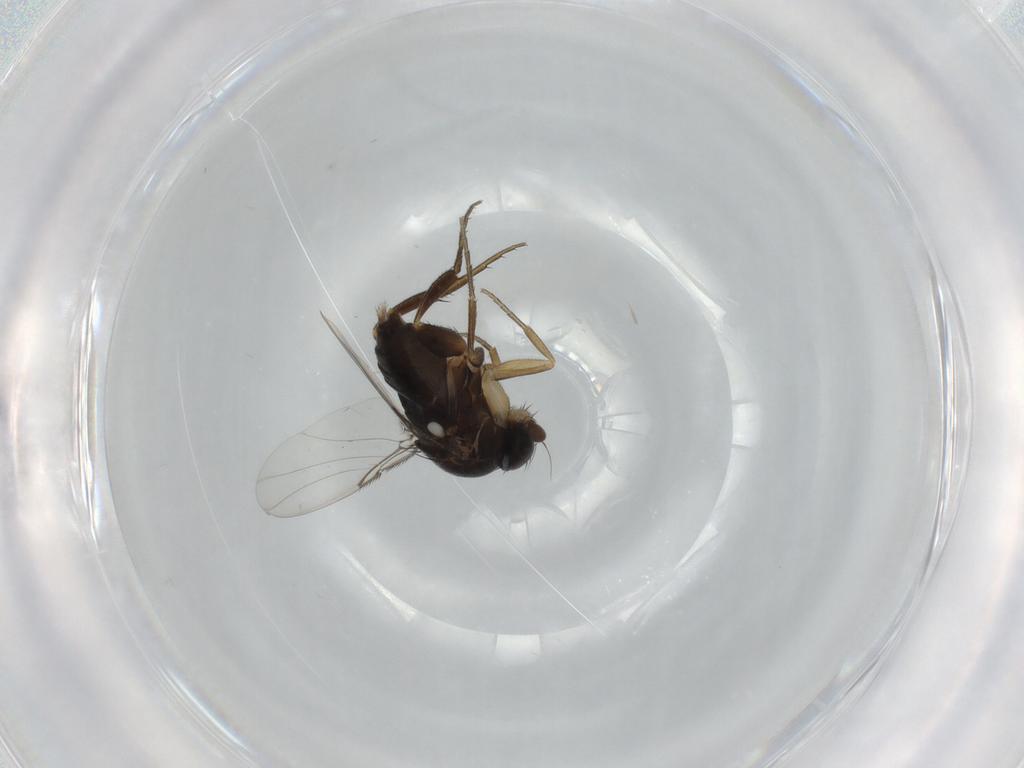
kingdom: Animalia
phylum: Arthropoda
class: Insecta
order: Diptera
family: Phoridae
